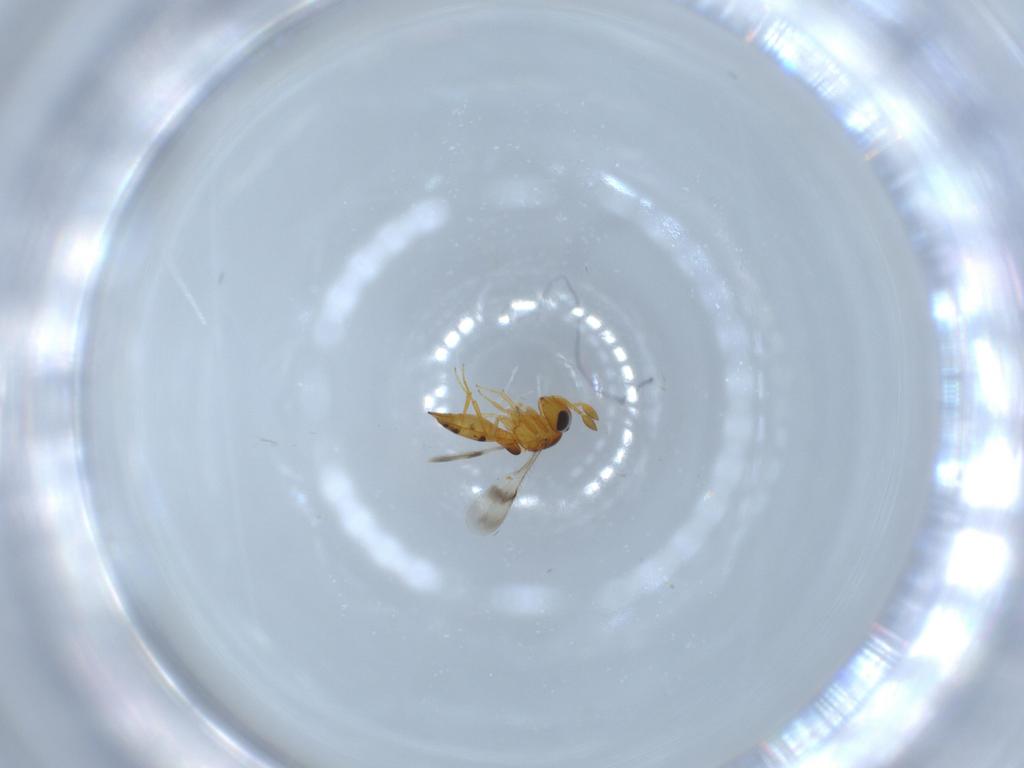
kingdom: Animalia
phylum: Arthropoda
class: Insecta
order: Hymenoptera
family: Scelionidae
